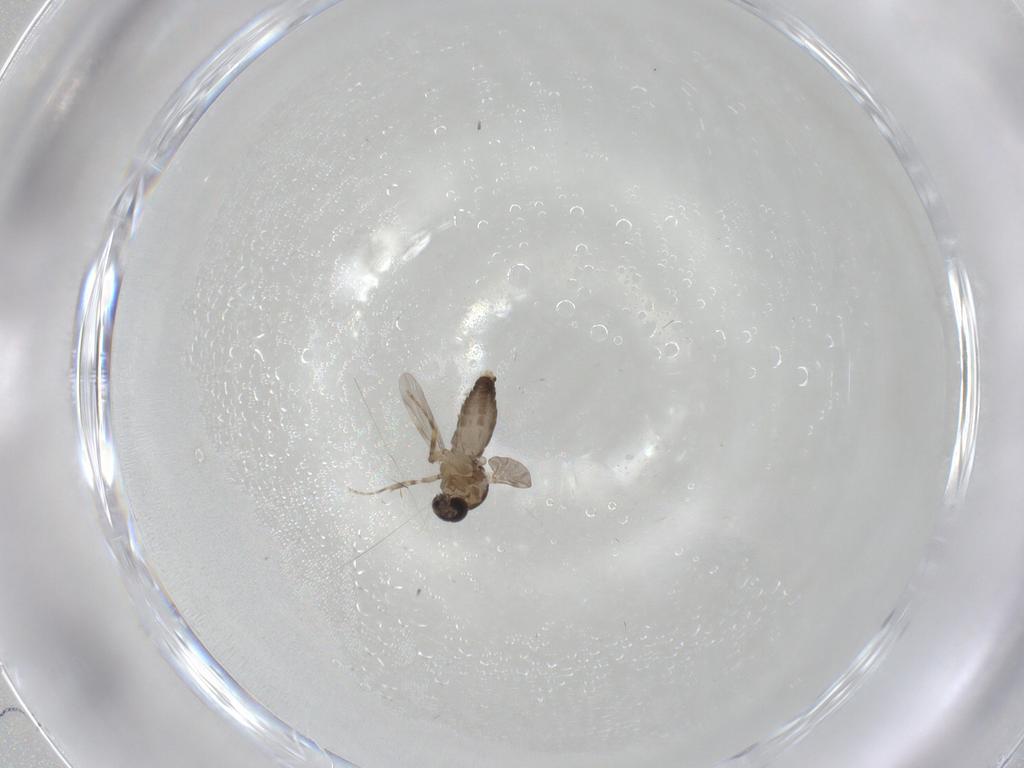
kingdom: Animalia
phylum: Arthropoda
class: Insecta
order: Diptera
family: Ceratopogonidae
